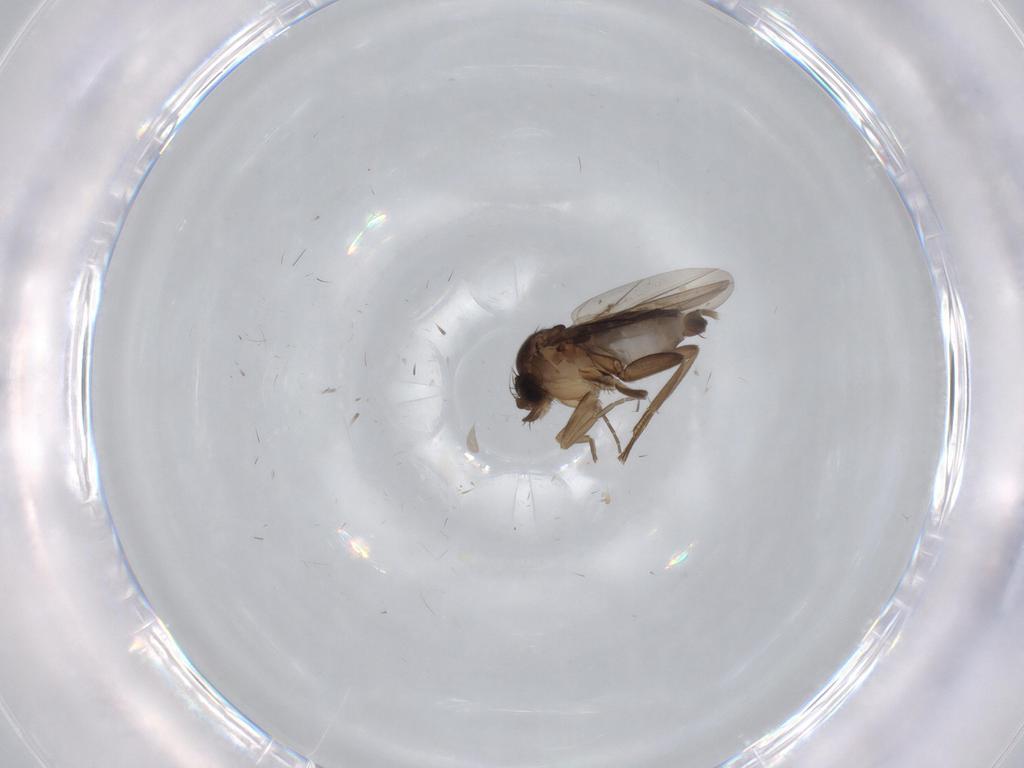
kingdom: Animalia
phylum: Arthropoda
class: Insecta
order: Diptera
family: Phoridae
